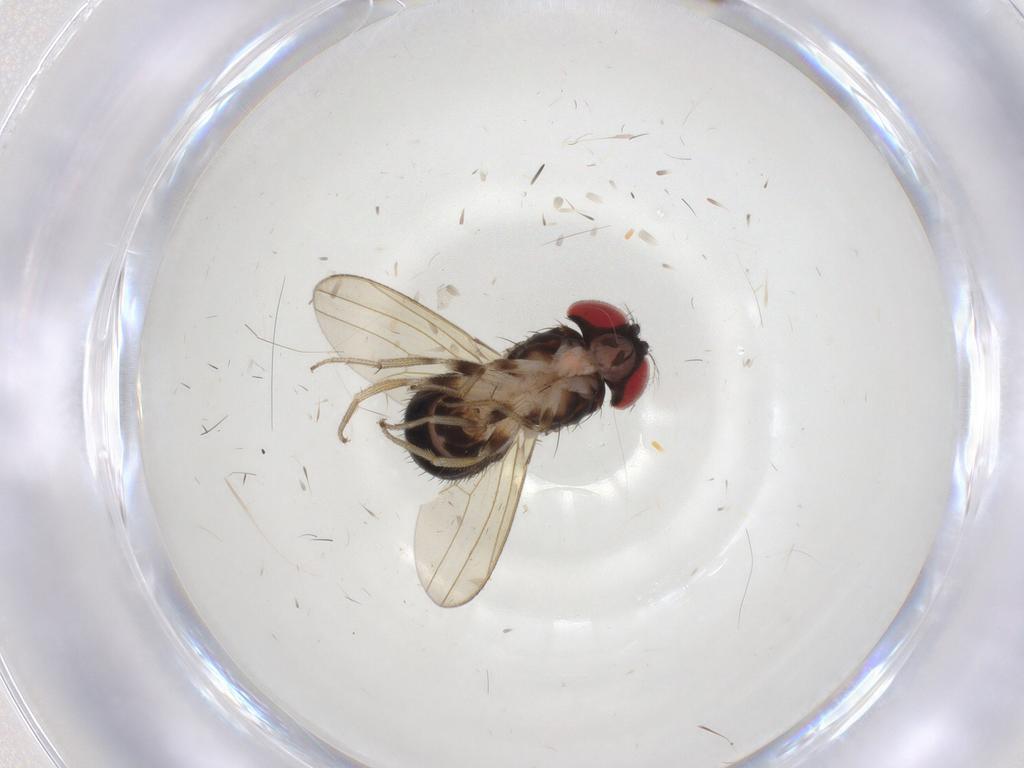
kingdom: Animalia
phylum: Arthropoda
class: Insecta
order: Diptera
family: Drosophilidae
